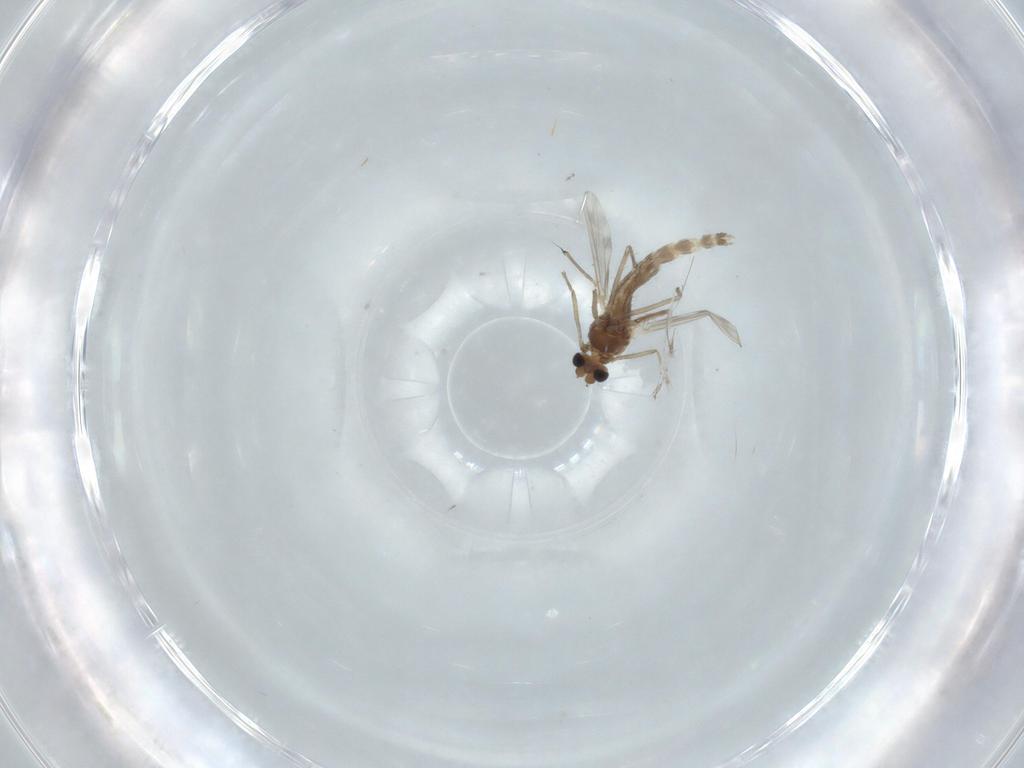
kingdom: Animalia
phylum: Arthropoda
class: Insecta
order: Diptera
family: Chironomidae
